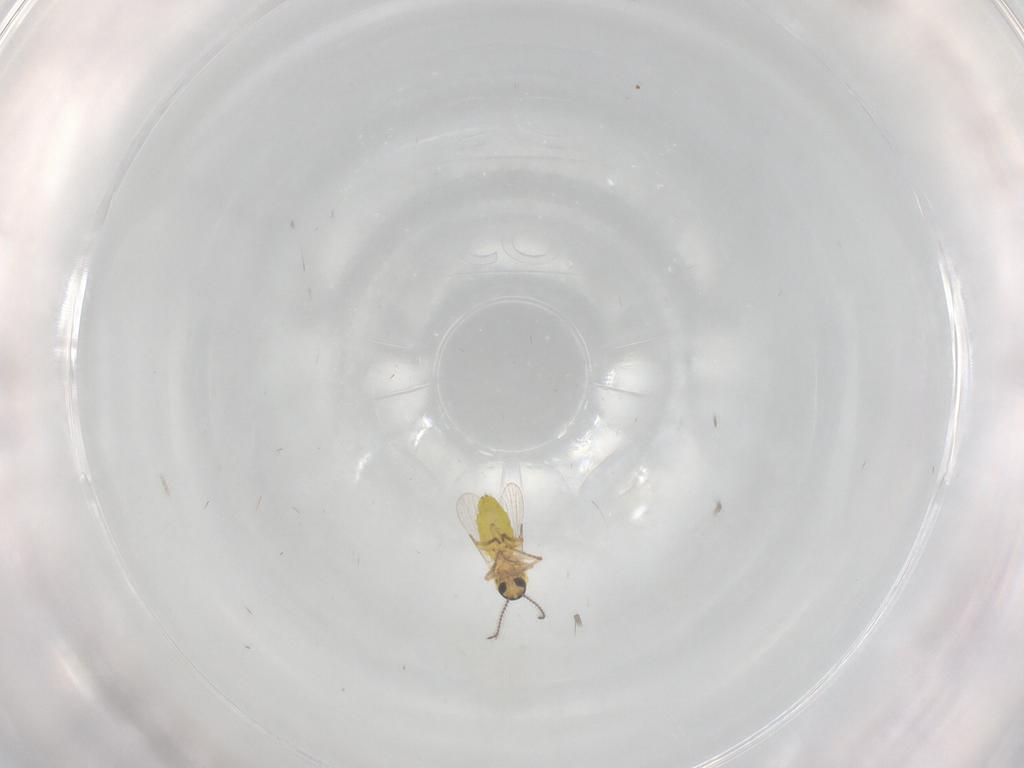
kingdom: Animalia
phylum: Arthropoda
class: Insecta
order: Diptera
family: Ceratopogonidae
